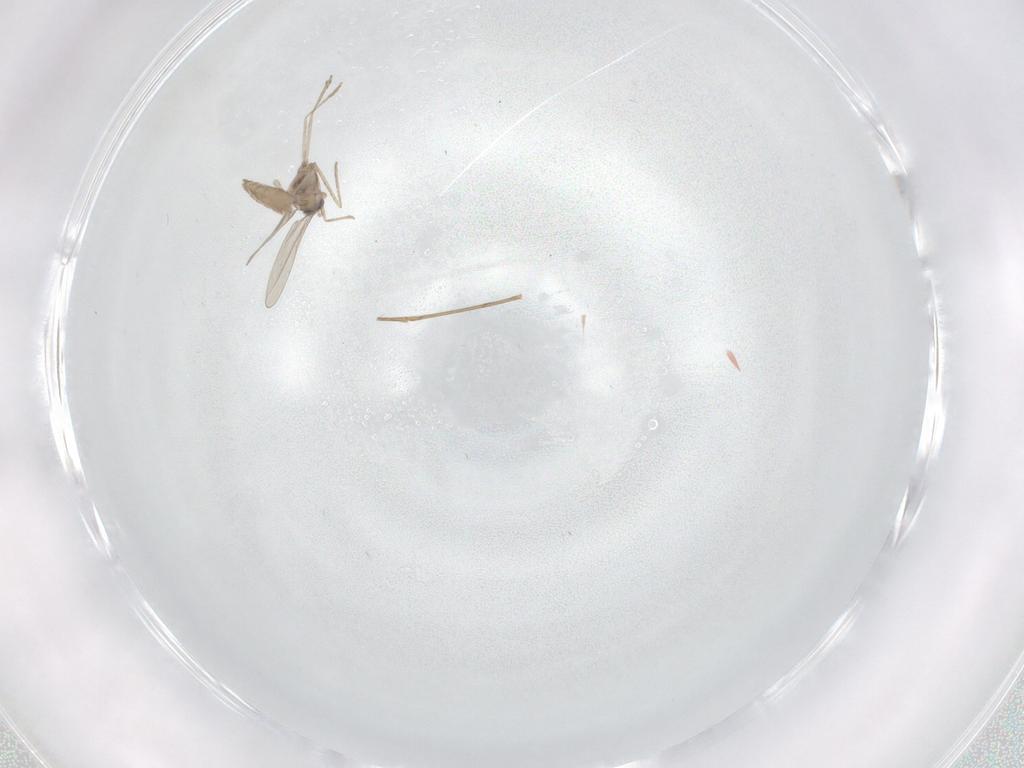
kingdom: Animalia
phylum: Arthropoda
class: Insecta
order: Diptera
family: Cecidomyiidae
